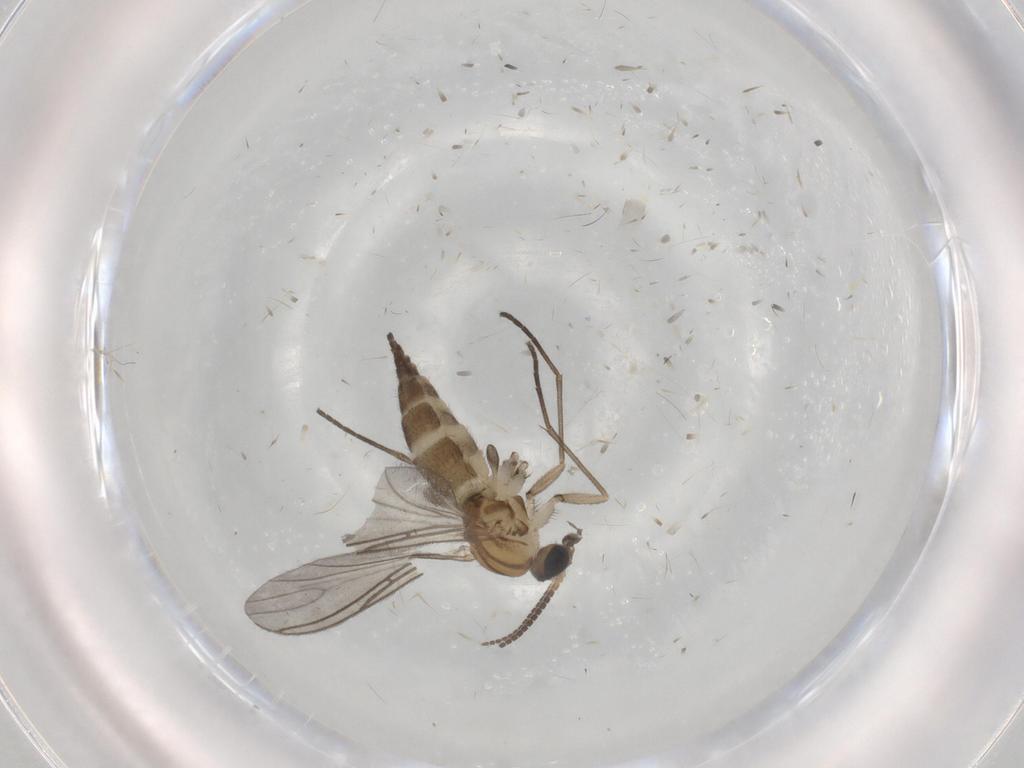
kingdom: Animalia
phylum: Arthropoda
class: Insecta
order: Diptera
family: Sciaridae
